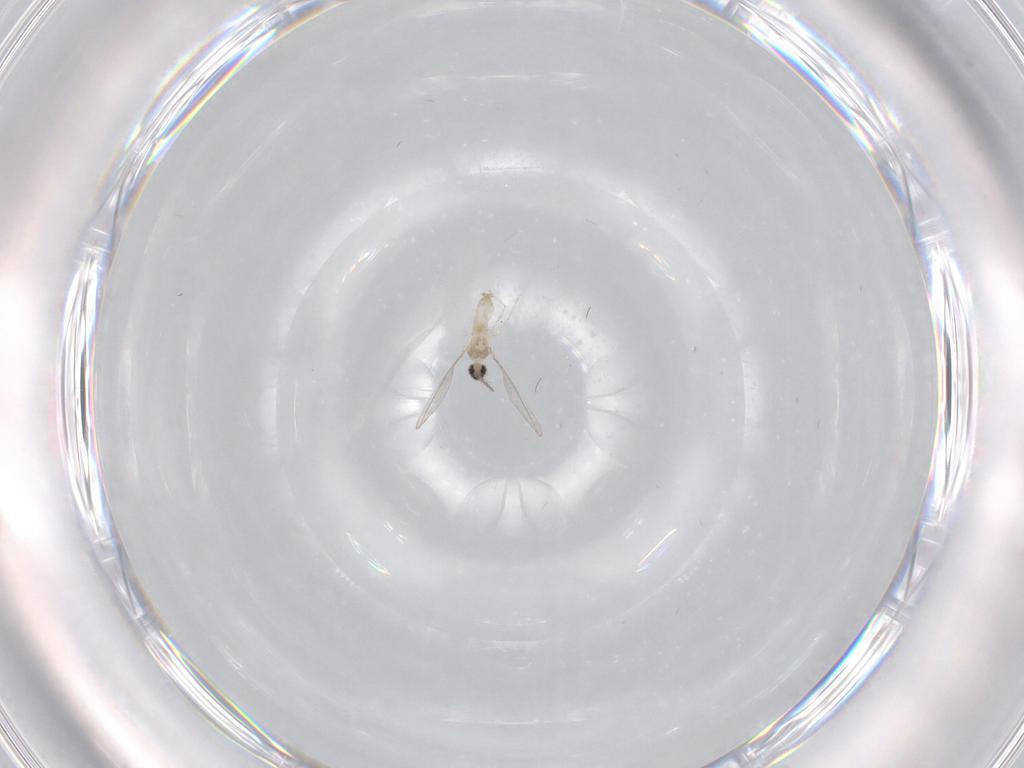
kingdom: Animalia
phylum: Arthropoda
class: Insecta
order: Diptera
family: Cecidomyiidae
